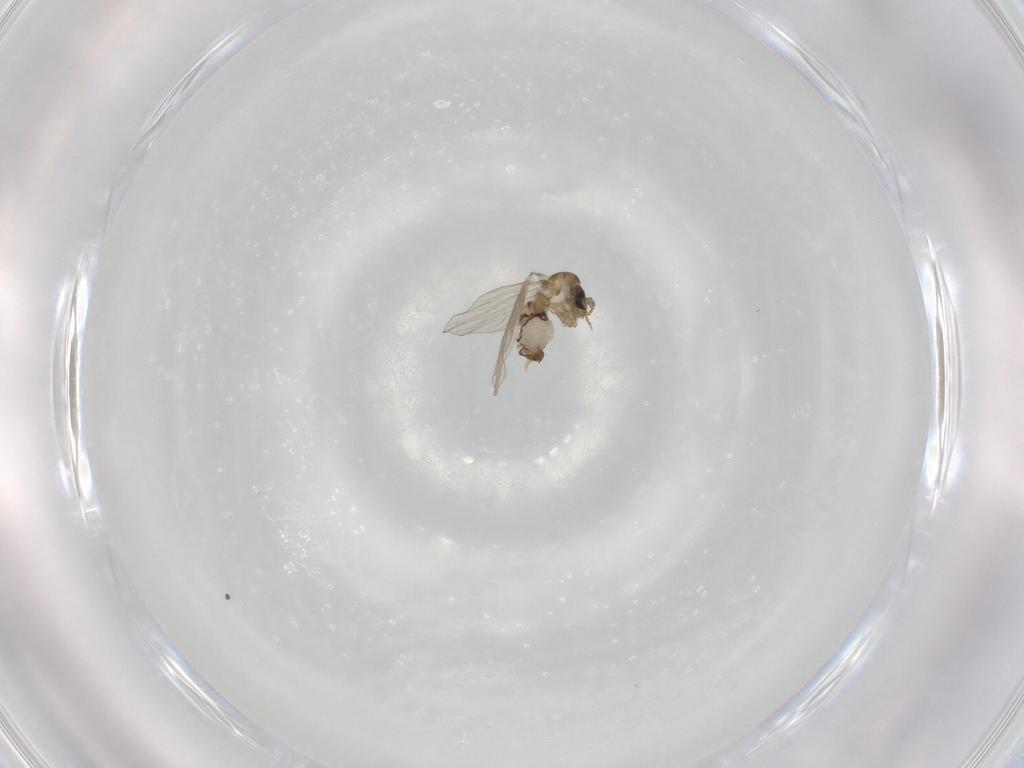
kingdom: Animalia
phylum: Arthropoda
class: Insecta
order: Diptera
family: Psychodidae
